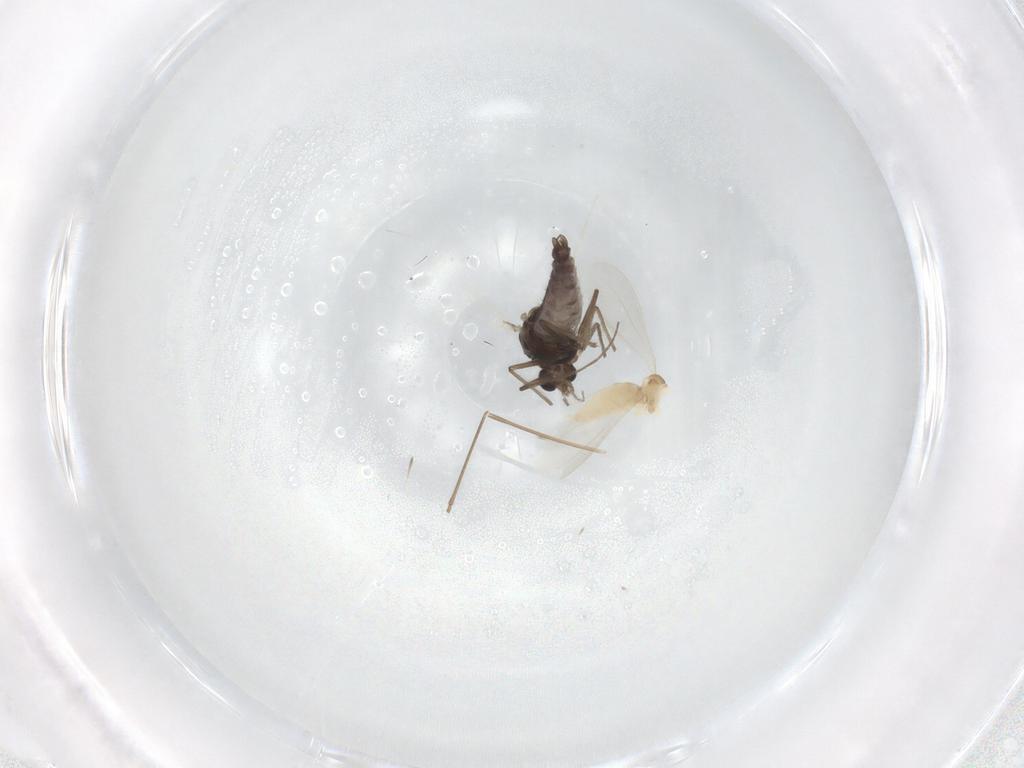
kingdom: Animalia
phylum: Arthropoda
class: Insecta
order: Diptera
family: Cecidomyiidae
